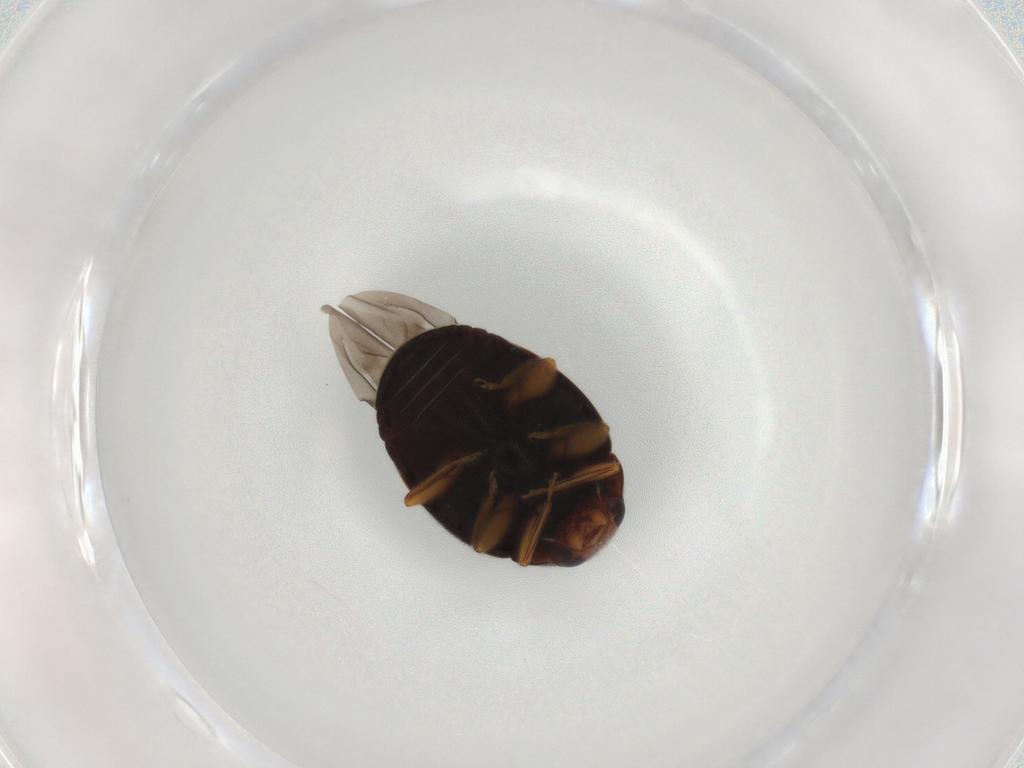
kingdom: Animalia
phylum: Arthropoda
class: Insecta
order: Coleoptera
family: Coccinellidae
